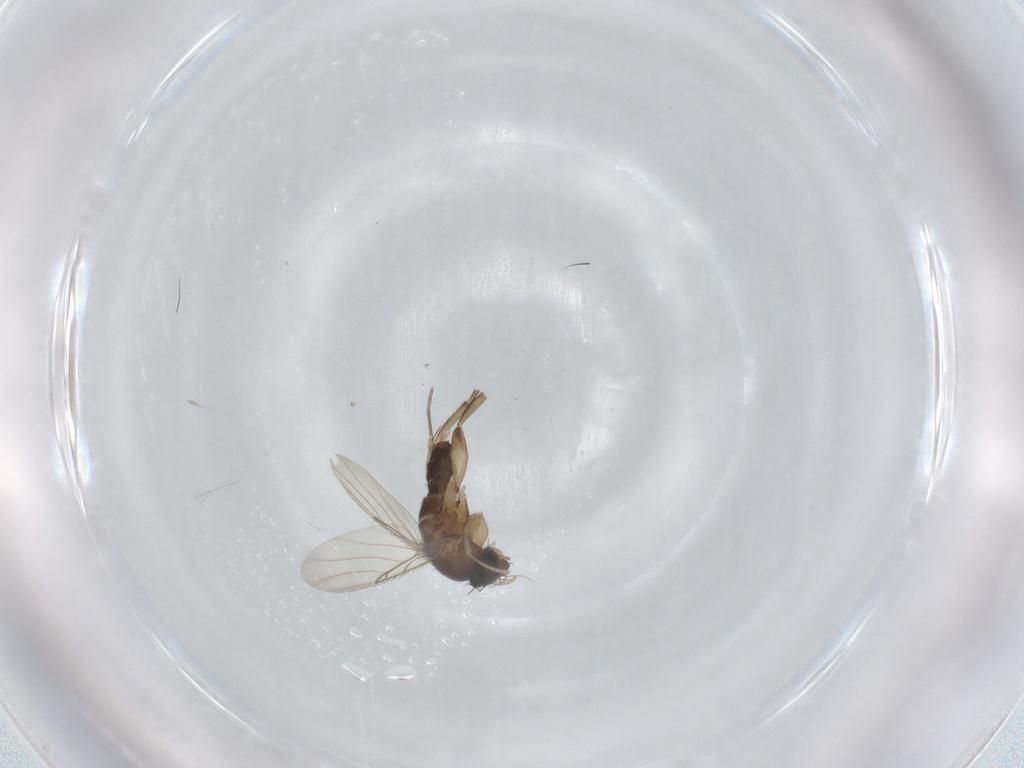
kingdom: Animalia
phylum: Arthropoda
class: Insecta
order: Diptera
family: Phoridae
